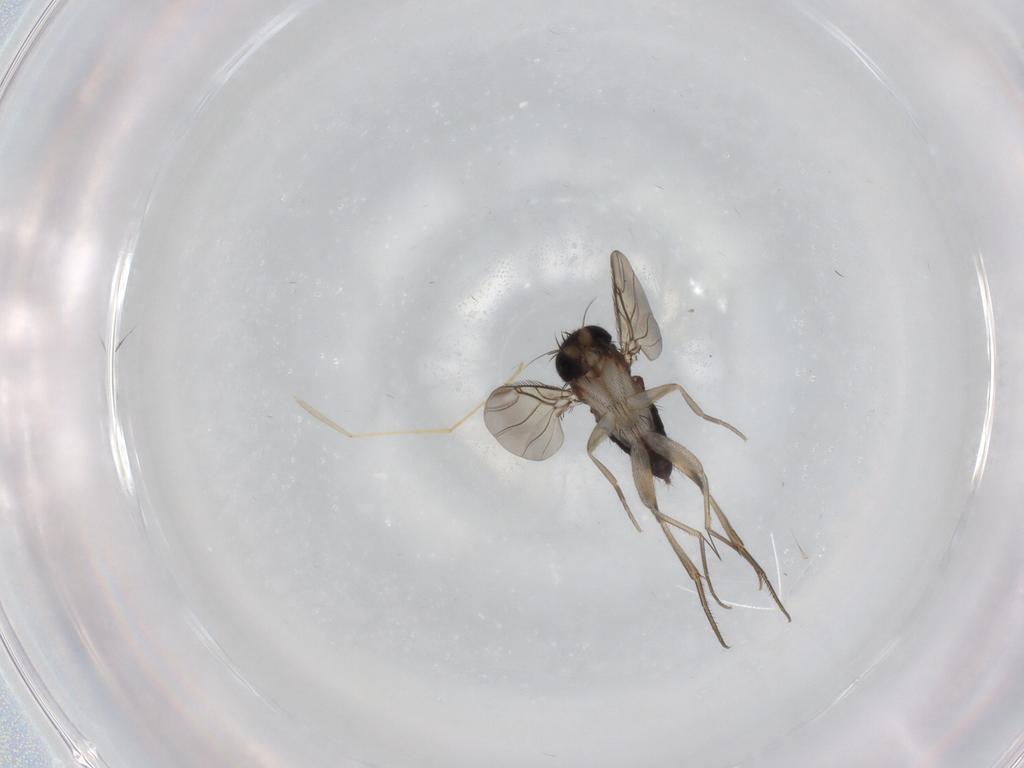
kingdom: Animalia
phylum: Arthropoda
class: Insecta
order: Diptera
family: Phoridae
